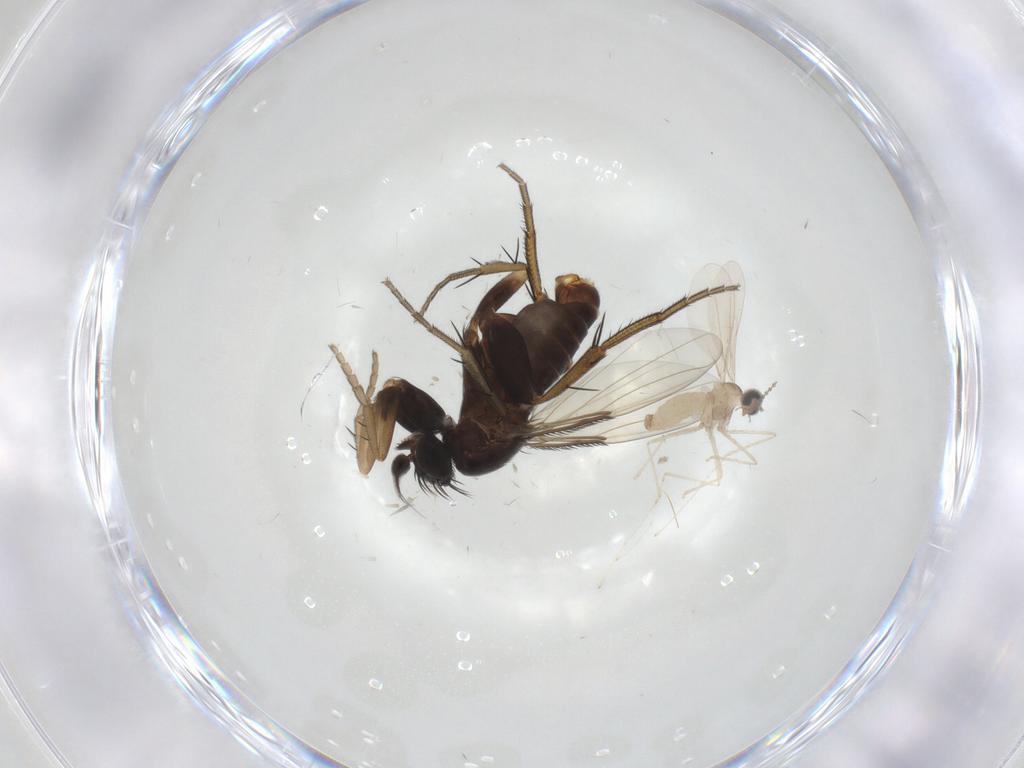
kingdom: Animalia
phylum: Arthropoda
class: Insecta
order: Diptera
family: Phoridae
